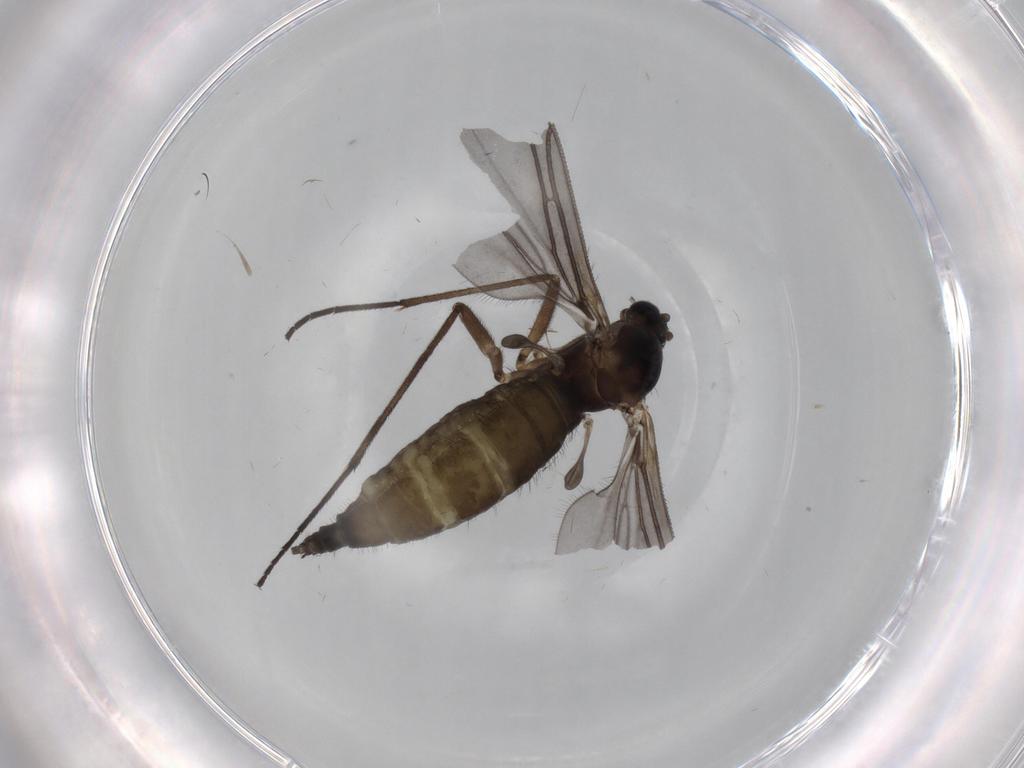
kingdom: Animalia
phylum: Arthropoda
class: Insecta
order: Diptera
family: Sciaridae
